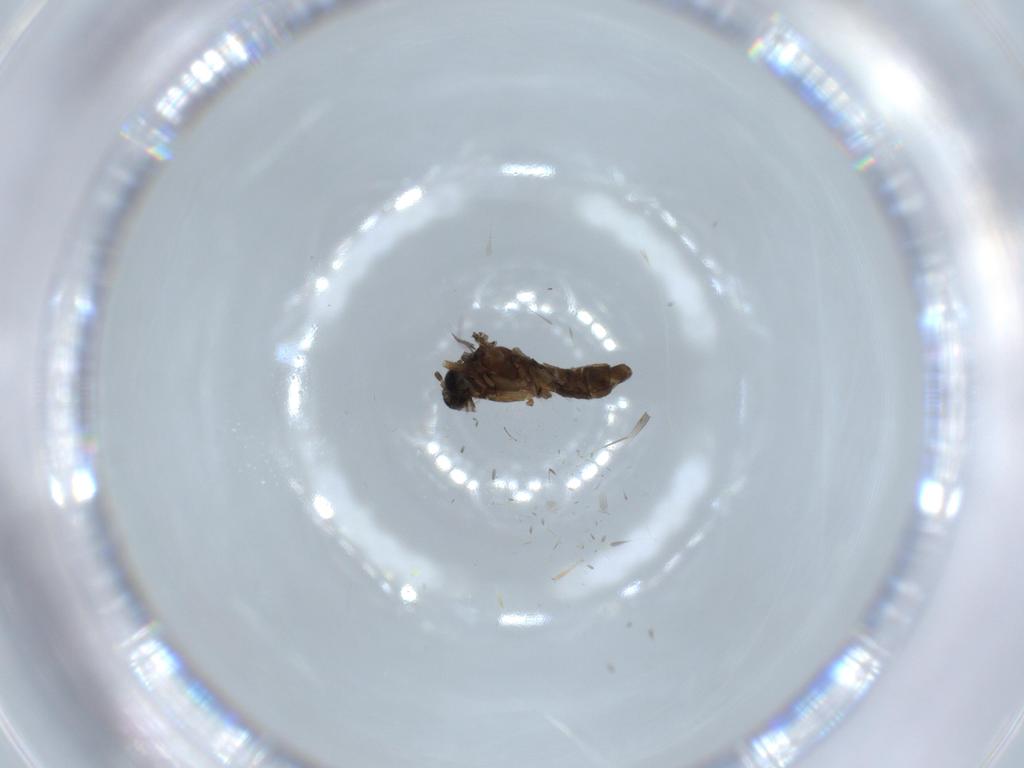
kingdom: Animalia
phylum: Arthropoda
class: Insecta
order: Diptera
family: Sciaridae
